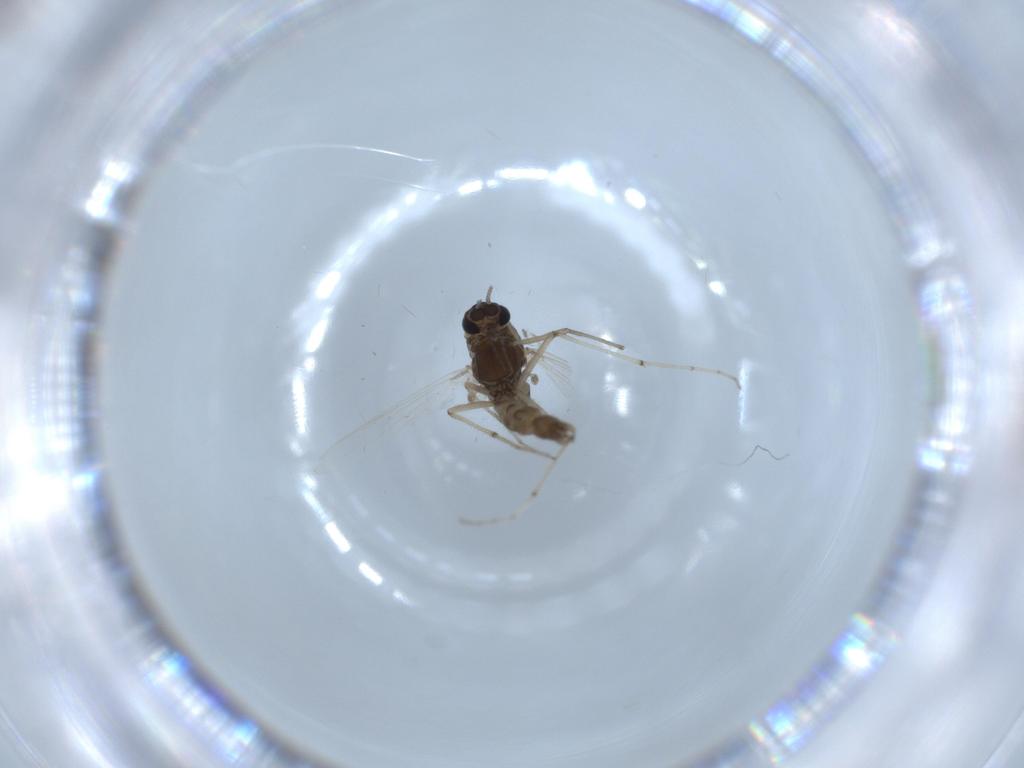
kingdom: Animalia
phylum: Arthropoda
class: Insecta
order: Diptera
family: Chironomidae
